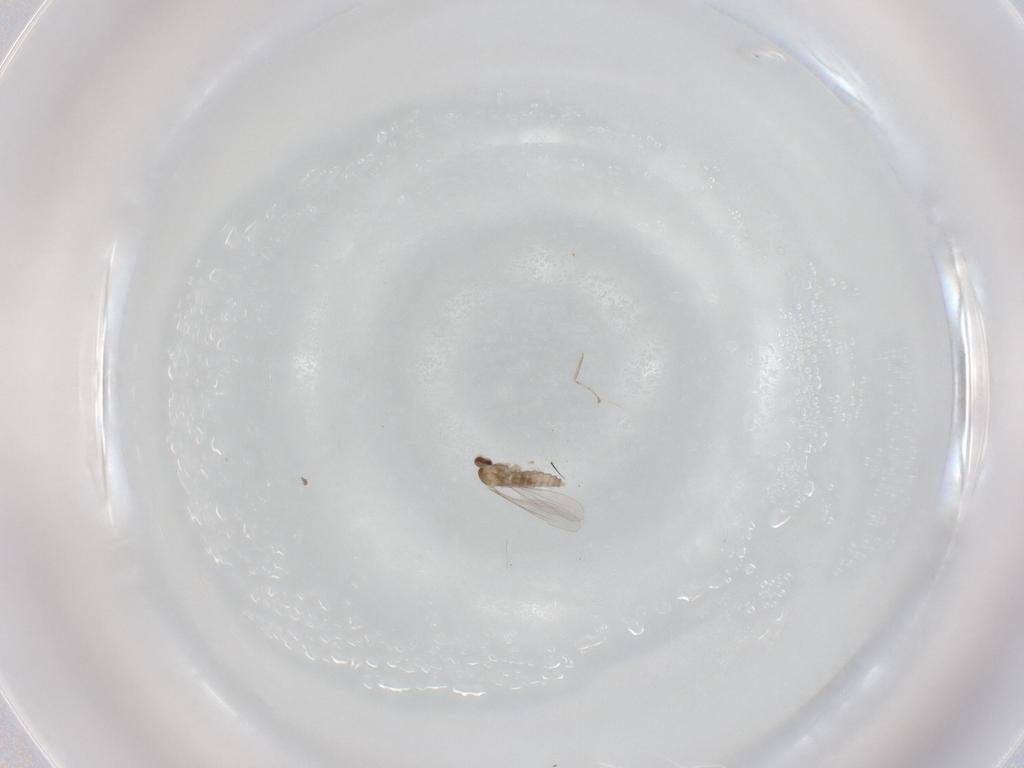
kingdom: Animalia
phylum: Arthropoda
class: Insecta
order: Diptera
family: Cecidomyiidae
